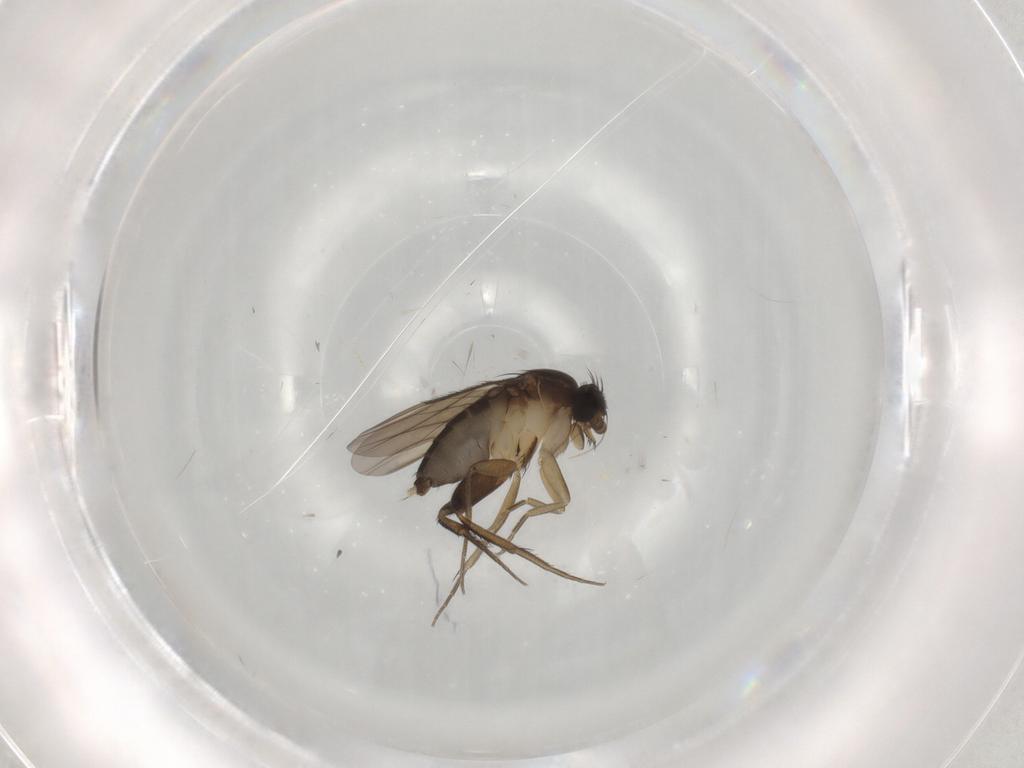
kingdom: Animalia
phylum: Arthropoda
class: Insecta
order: Diptera
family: Phoridae
